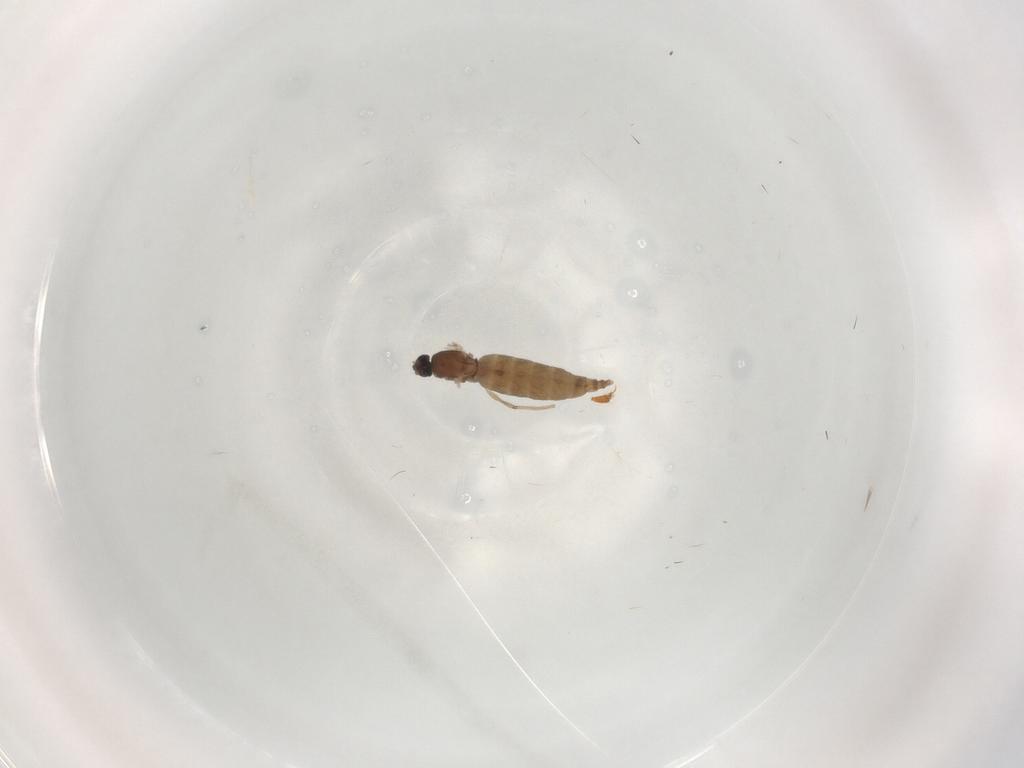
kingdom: Animalia
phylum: Arthropoda
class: Insecta
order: Diptera
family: Cecidomyiidae
